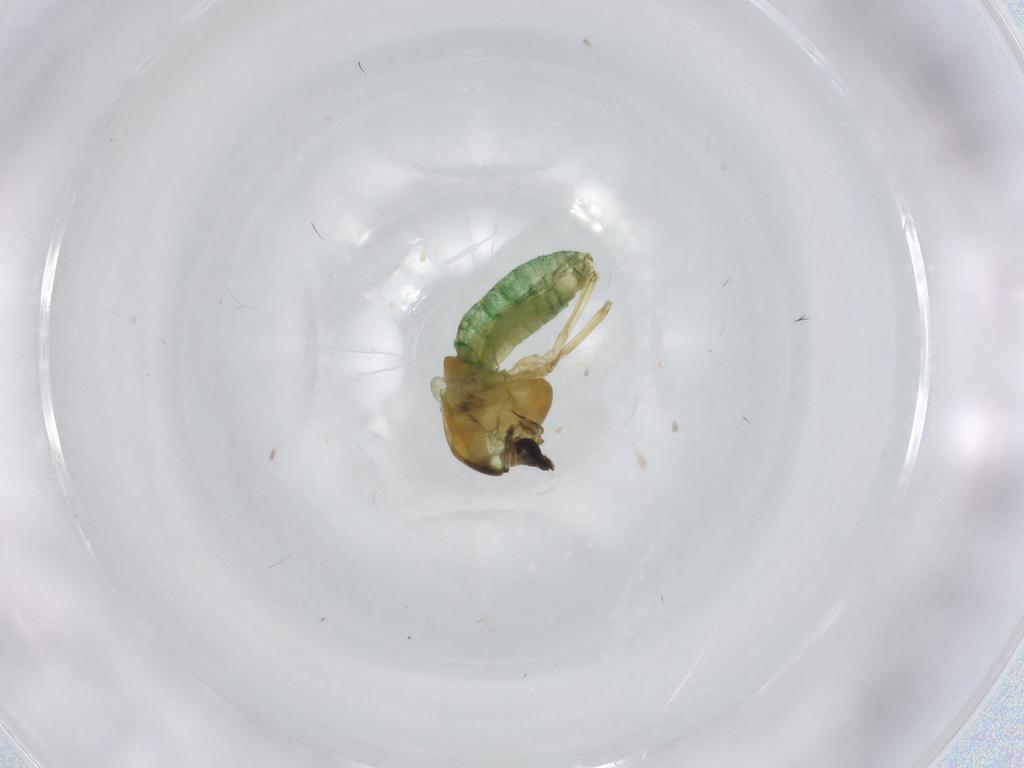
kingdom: Animalia
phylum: Arthropoda
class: Insecta
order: Diptera
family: Chironomidae
